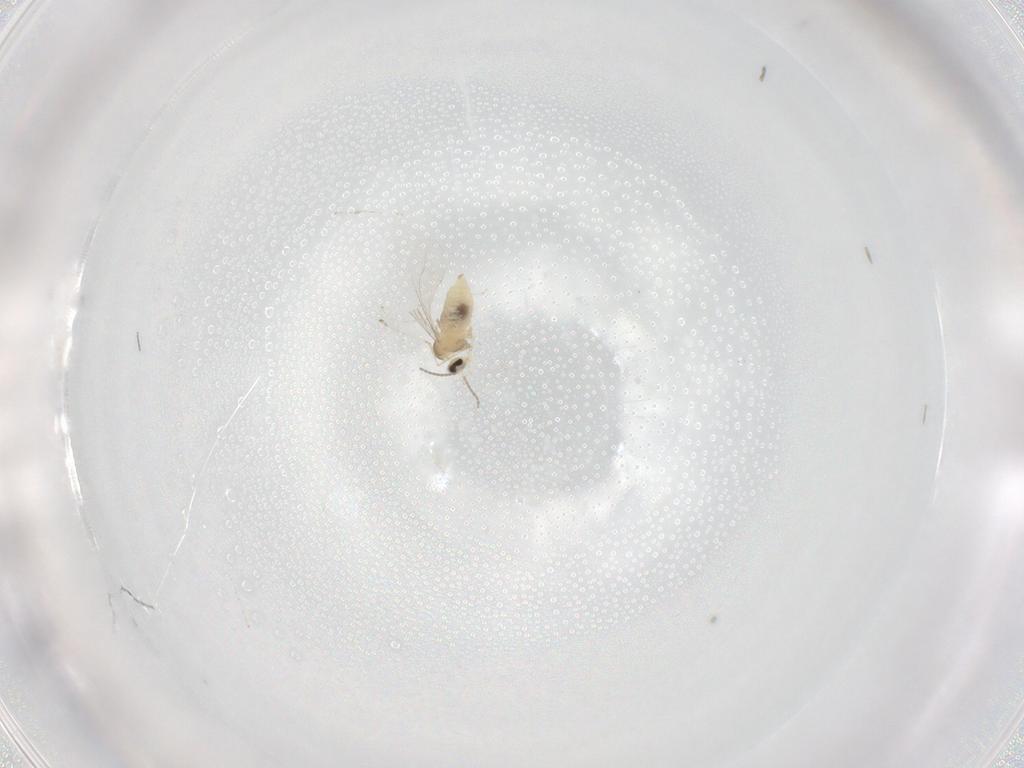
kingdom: Animalia
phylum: Arthropoda
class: Insecta
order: Diptera
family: Cecidomyiidae
